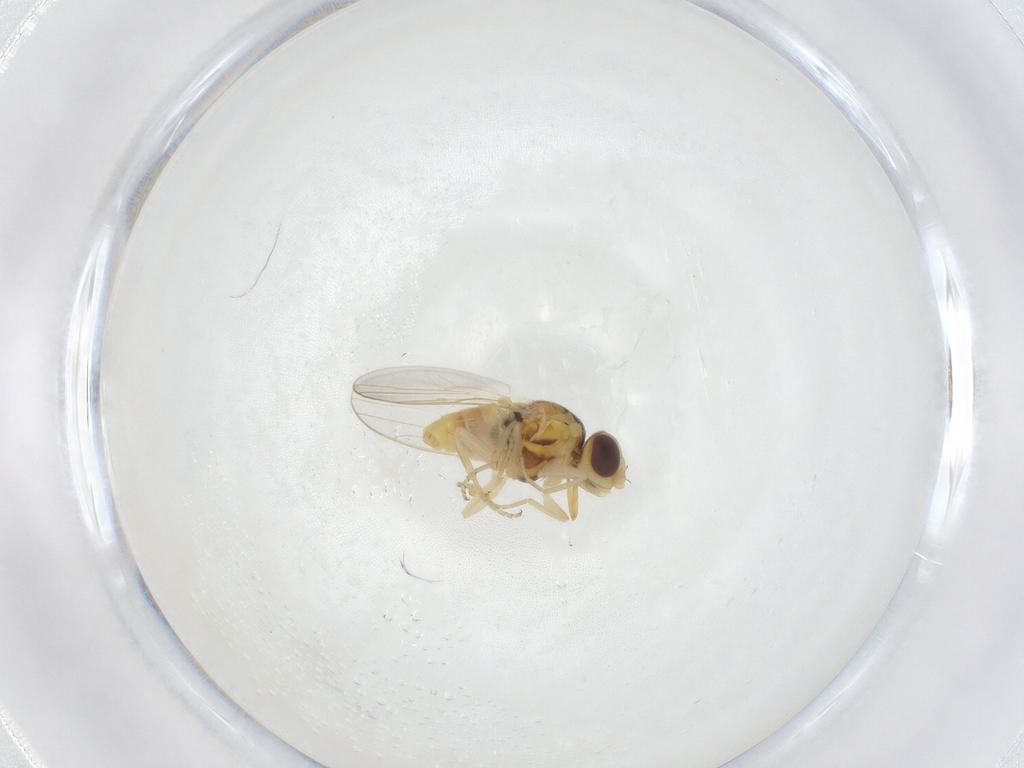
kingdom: Animalia
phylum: Arthropoda
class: Insecta
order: Diptera
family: Chloropidae
